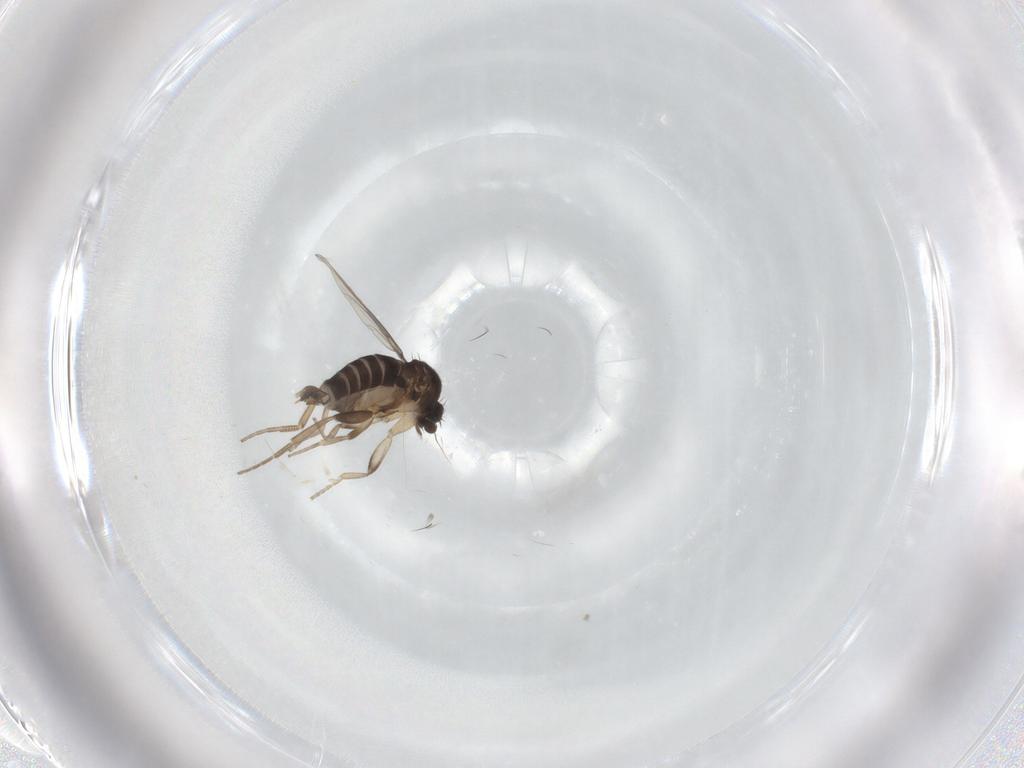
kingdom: Animalia
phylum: Arthropoda
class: Insecta
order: Diptera
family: Phoridae
